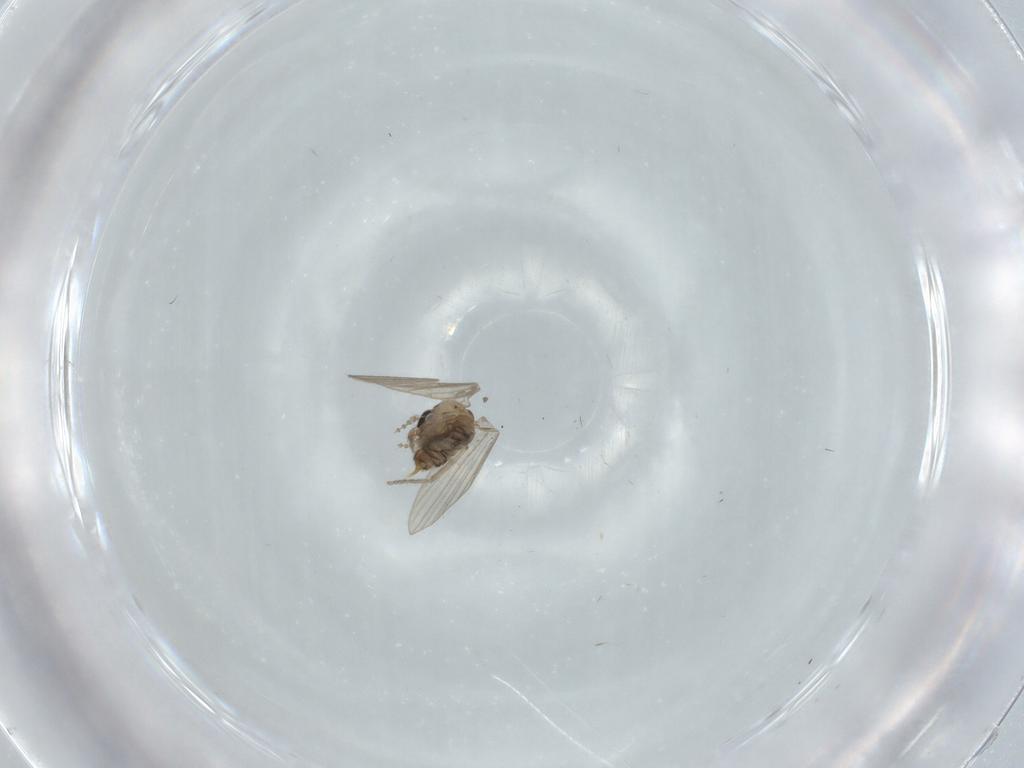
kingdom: Animalia
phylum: Arthropoda
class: Insecta
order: Diptera
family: Psychodidae
